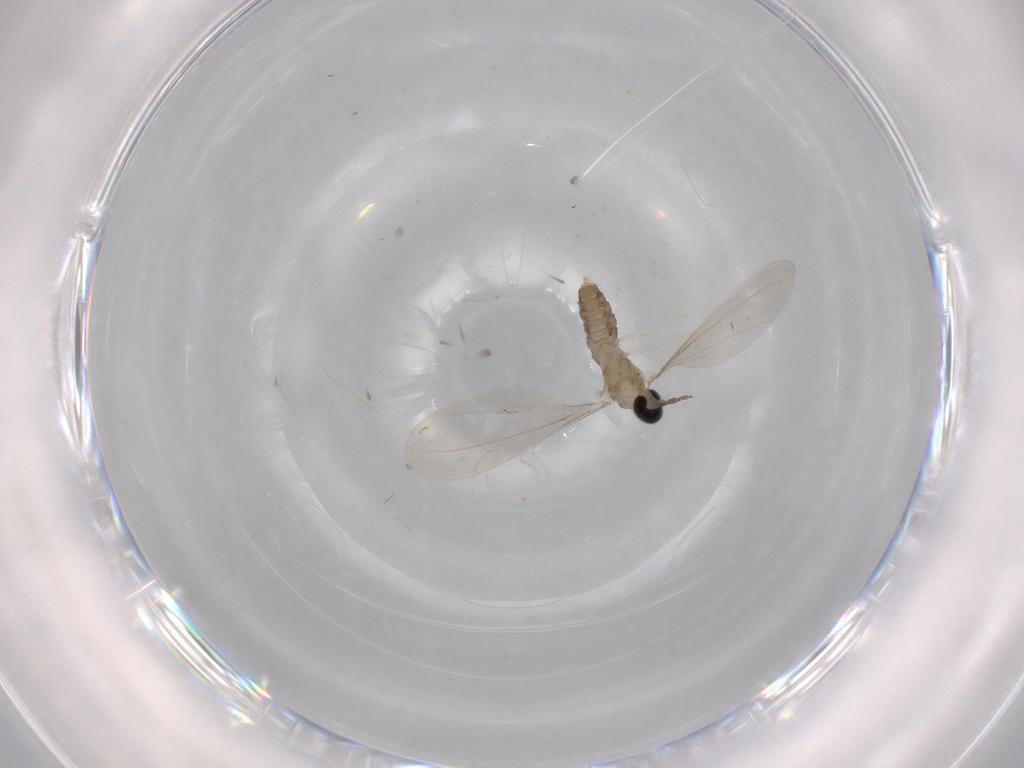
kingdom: Animalia
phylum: Arthropoda
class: Insecta
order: Diptera
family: Cecidomyiidae
